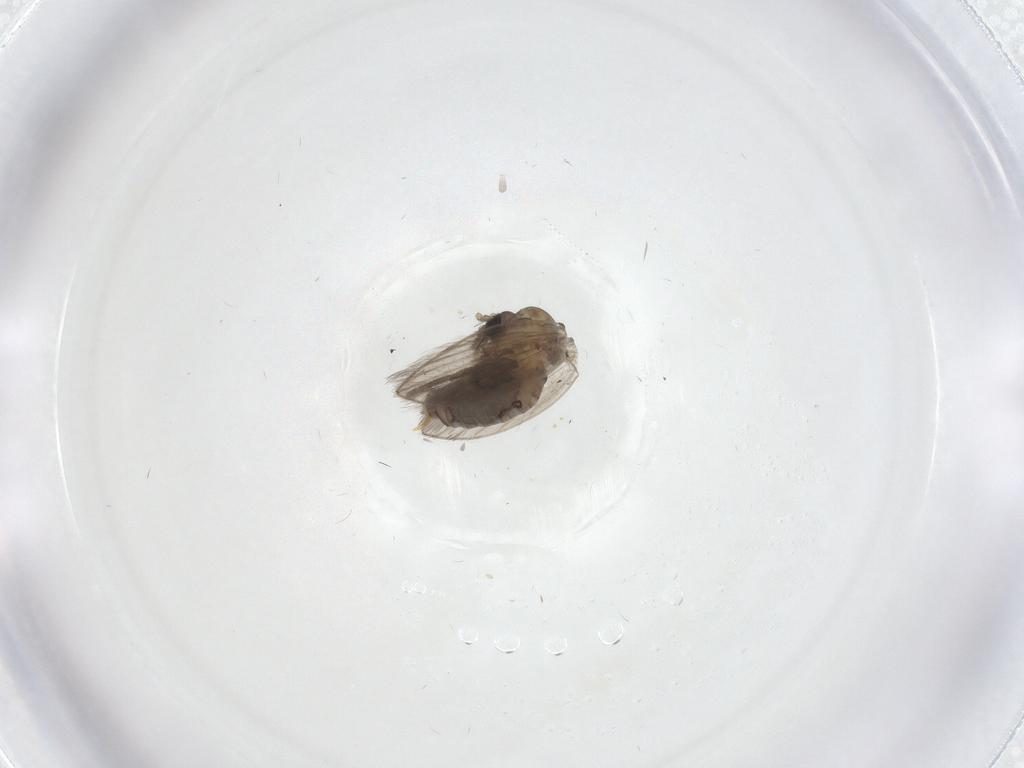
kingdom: Animalia
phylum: Arthropoda
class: Insecta
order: Diptera
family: Psychodidae
